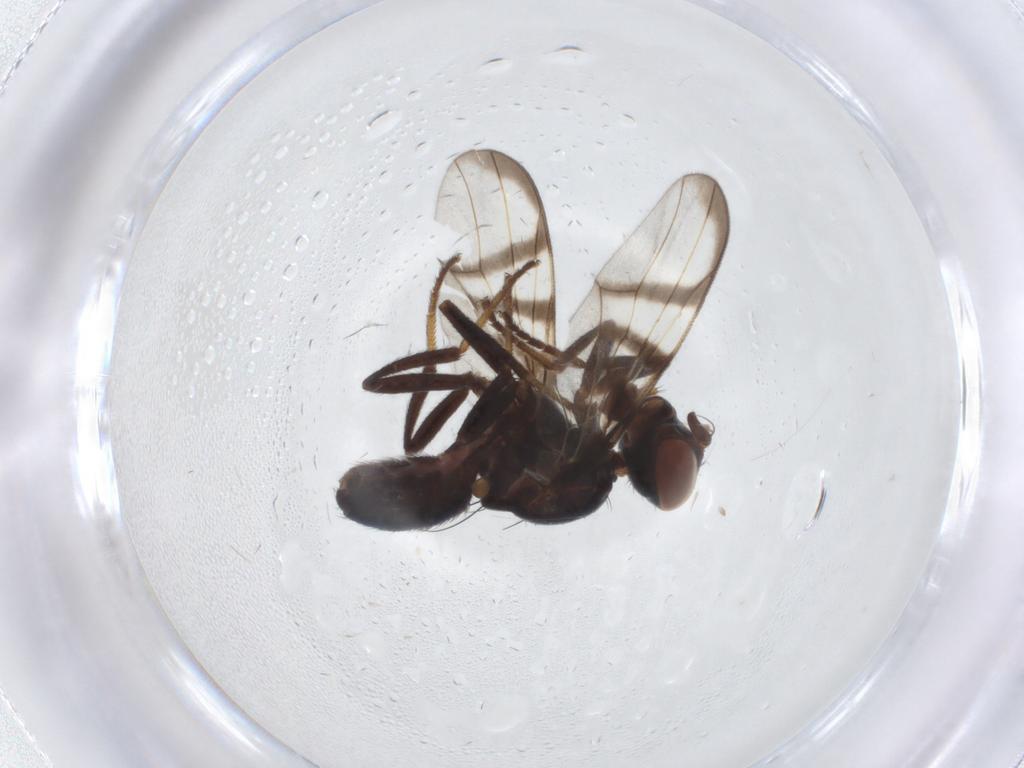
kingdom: Animalia
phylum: Arthropoda
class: Insecta
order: Diptera
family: Platystomatidae
